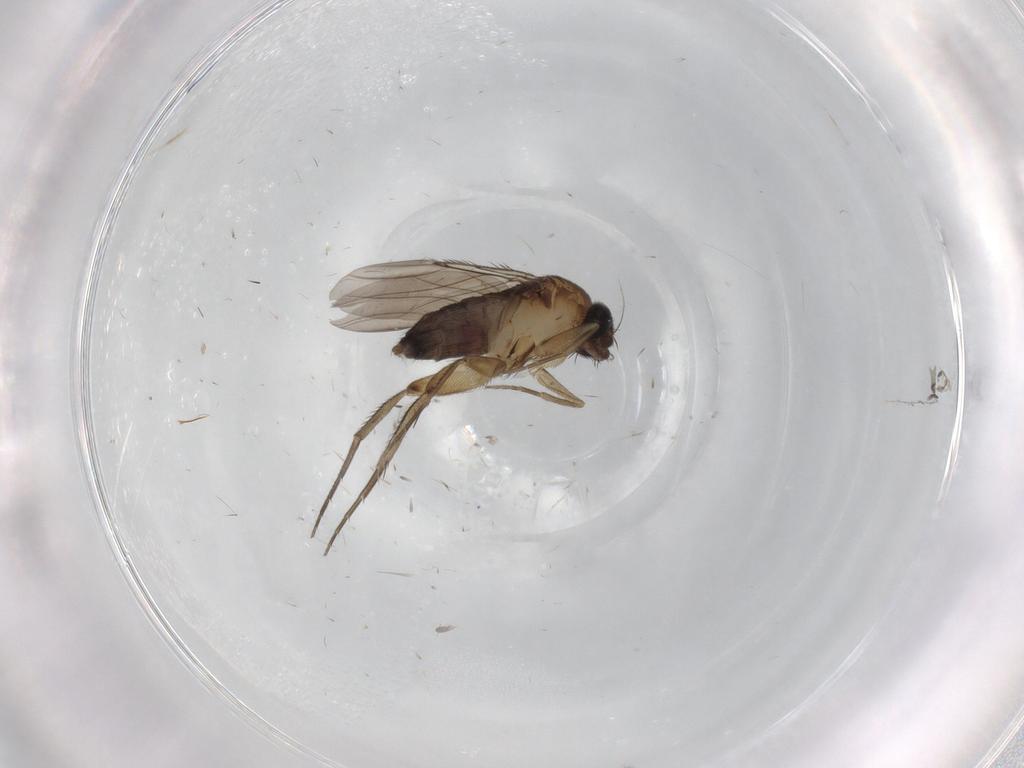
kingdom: Animalia
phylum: Arthropoda
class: Insecta
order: Diptera
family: Phoridae
